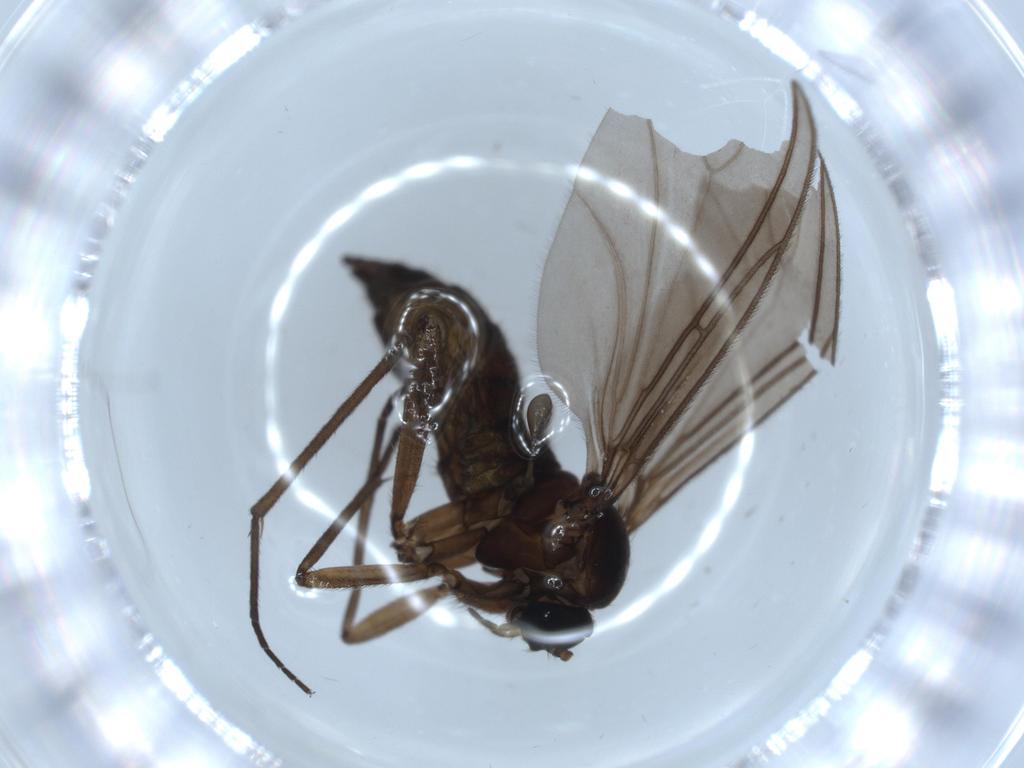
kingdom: Animalia
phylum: Arthropoda
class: Insecta
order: Diptera
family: Sciaridae
